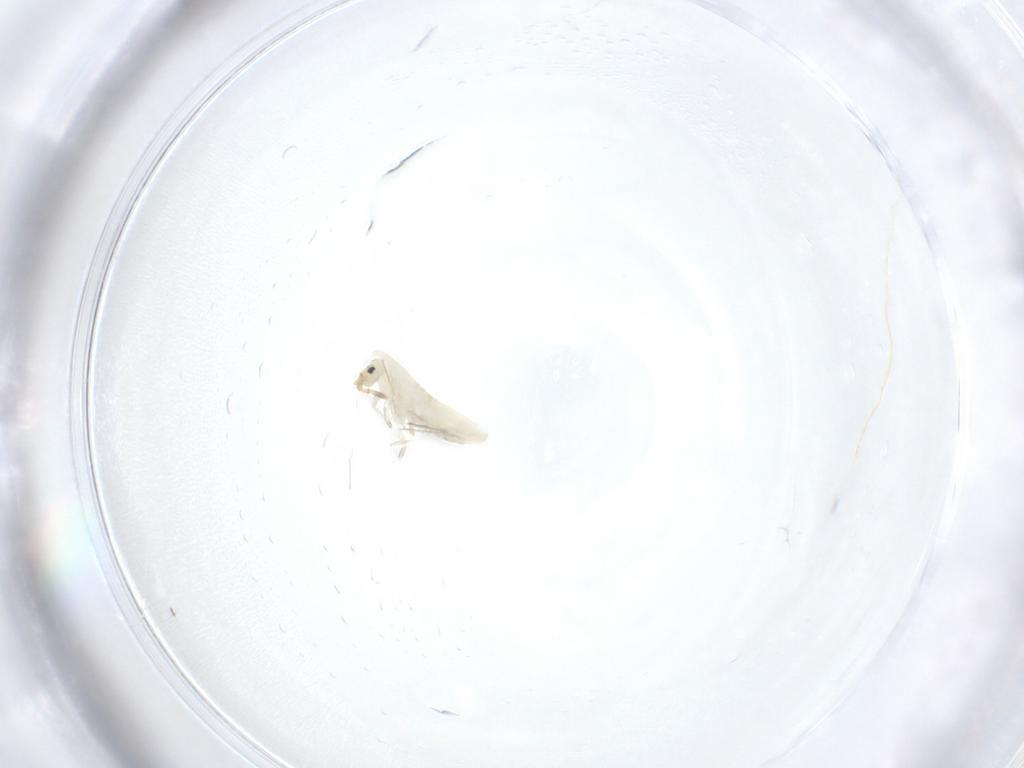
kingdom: Animalia
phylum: Arthropoda
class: Collembola
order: Entomobryomorpha
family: Entomobryidae
